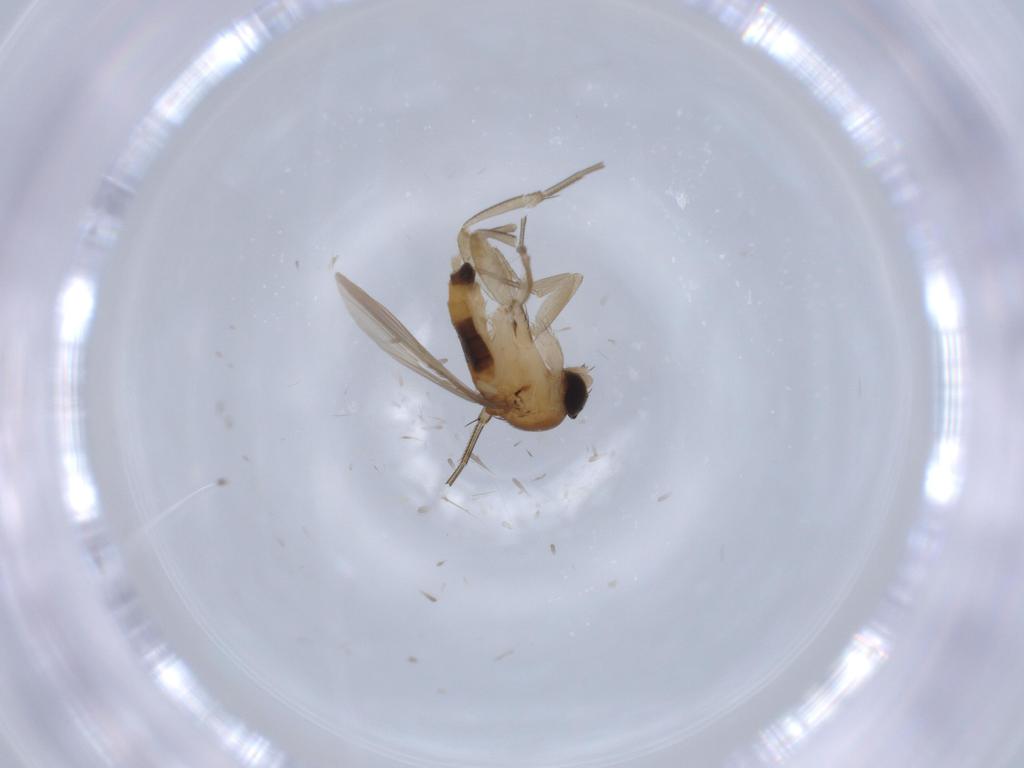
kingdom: Animalia
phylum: Arthropoda
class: Insecta
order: Diptera
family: Phoridae
